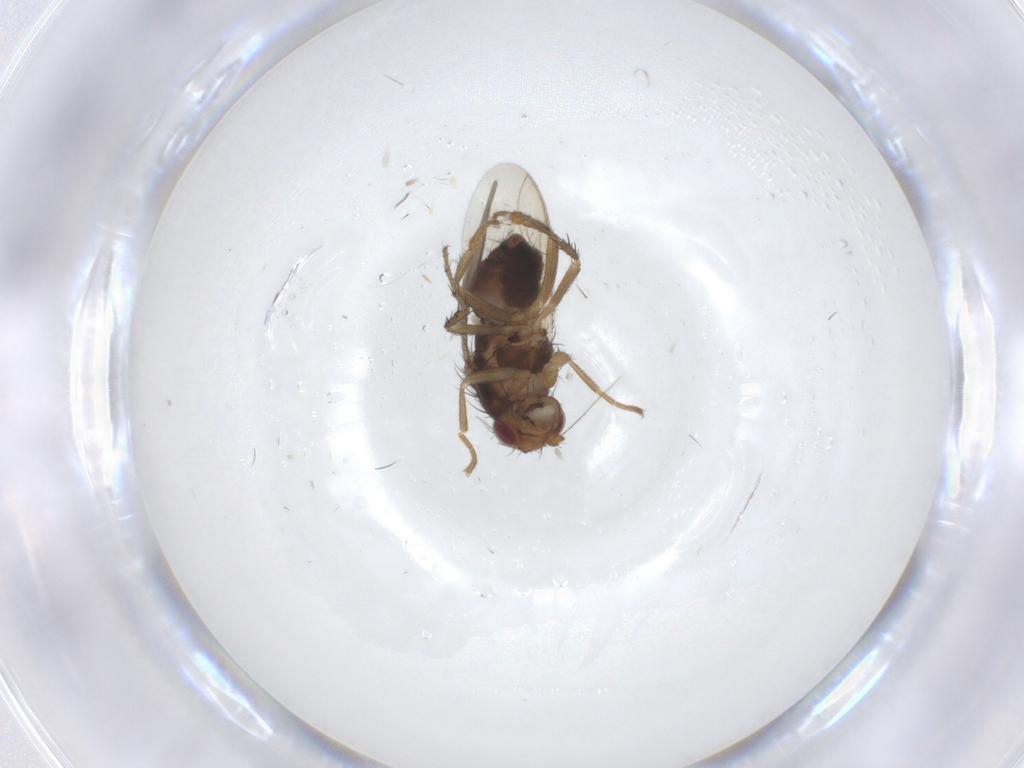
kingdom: Animalia
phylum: Arthropoda
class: Insecta
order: Diptera
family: Sphaeroceridae
